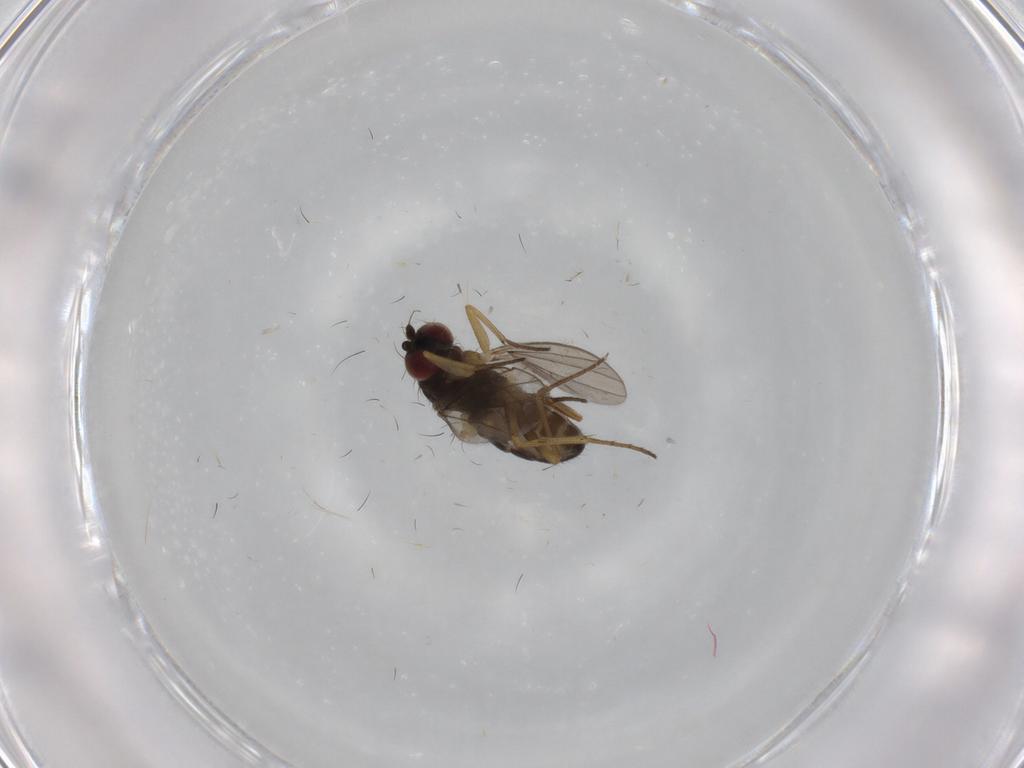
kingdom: Animalia
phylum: Arthropoda
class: Insecta
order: Diptera
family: Dolichopodidae
